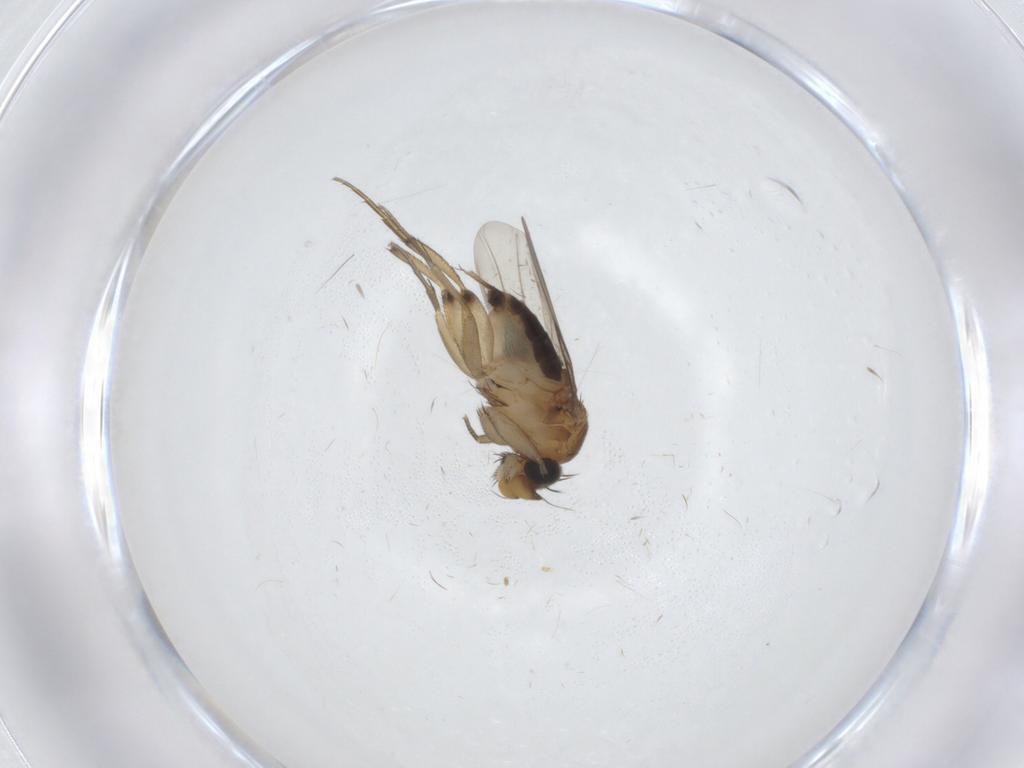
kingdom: Animalia
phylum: Arthropoda
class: Insecta
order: Diptera
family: Sciaridae
